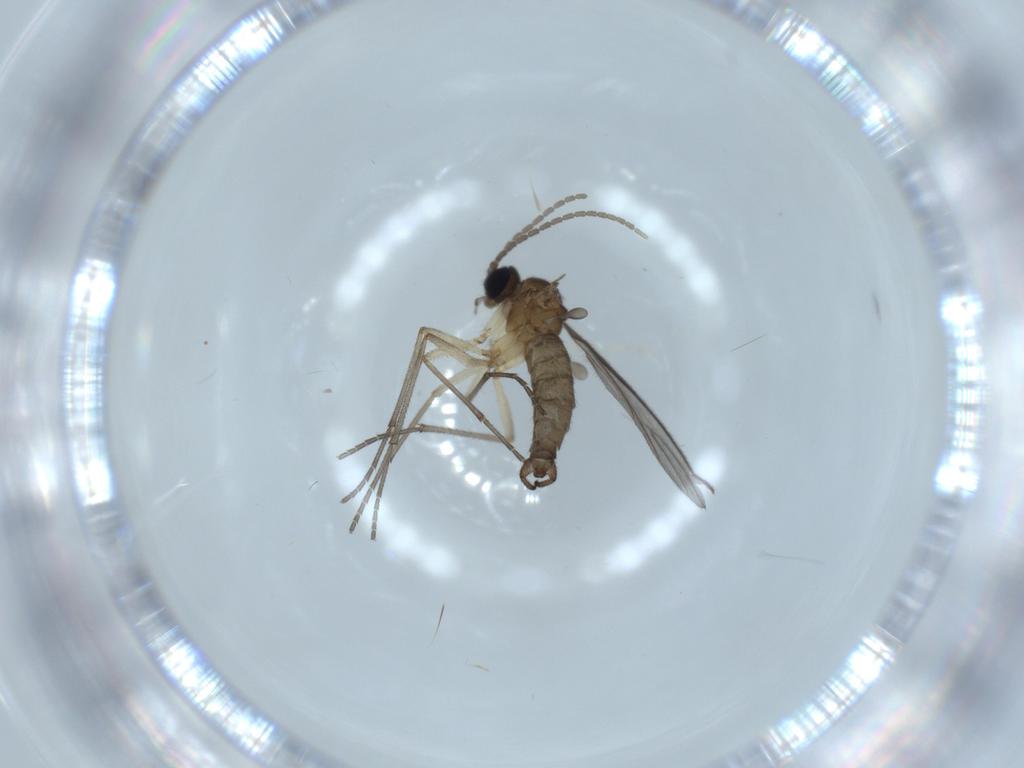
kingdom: Animalia
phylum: Arthropoda
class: Insecta
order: Diptera
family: Sciaridae
